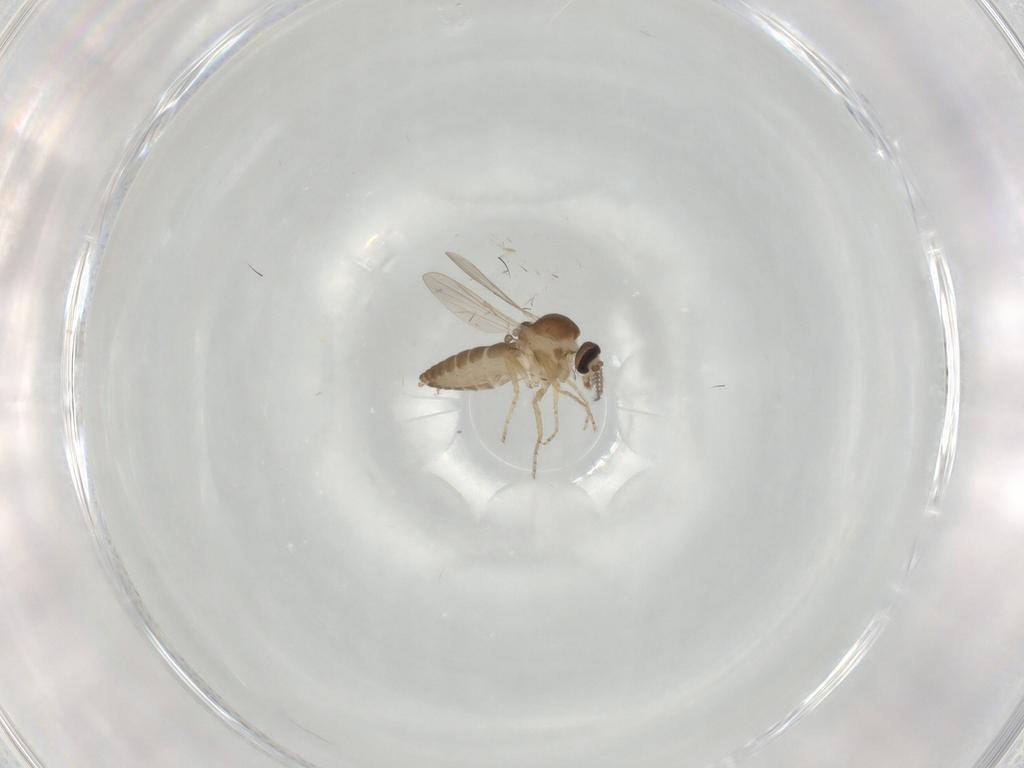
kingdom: Animalia
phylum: Arthropoda
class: Insecta
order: Diptera
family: Ceratopogonidae
